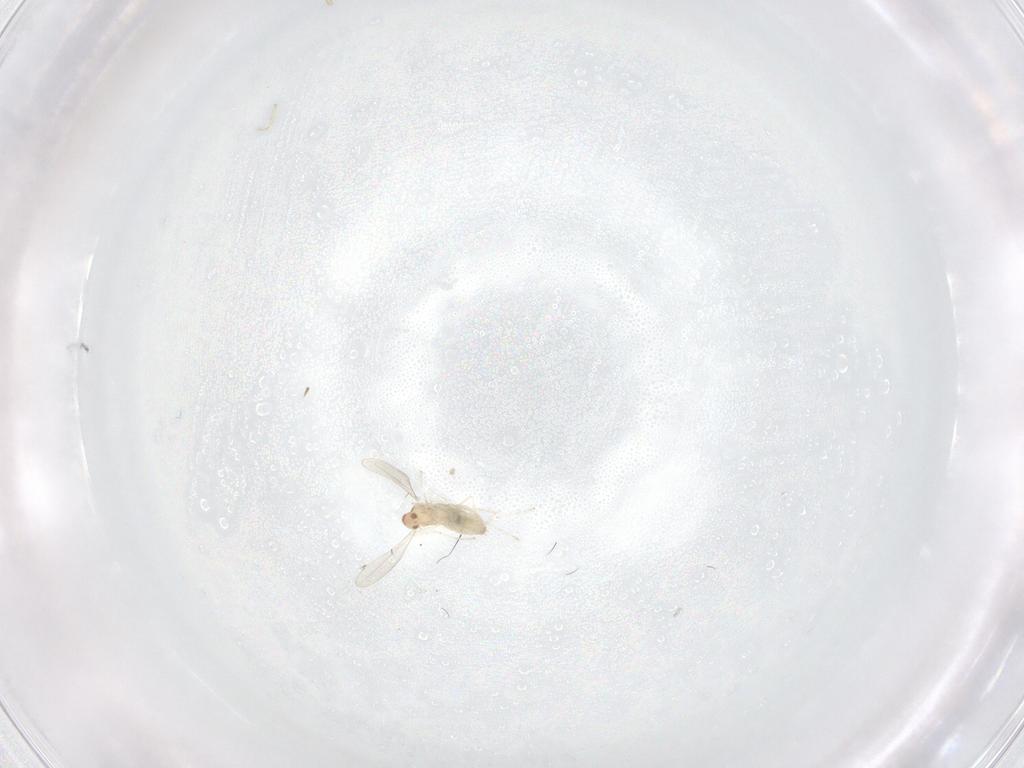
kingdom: Animalia
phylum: Arthropoda
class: Insecta
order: Diptera
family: Cecidomyiidae
